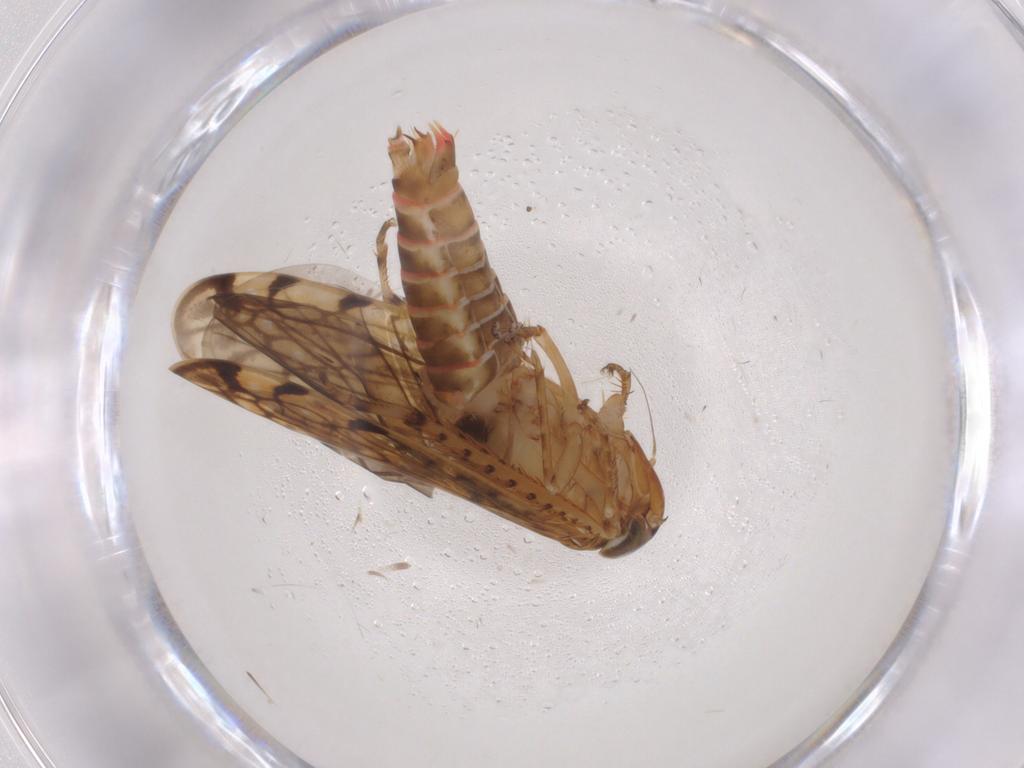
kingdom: Animalia
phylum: Arthropoda
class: Insecta
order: Hemiptera
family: Cicadellidae
